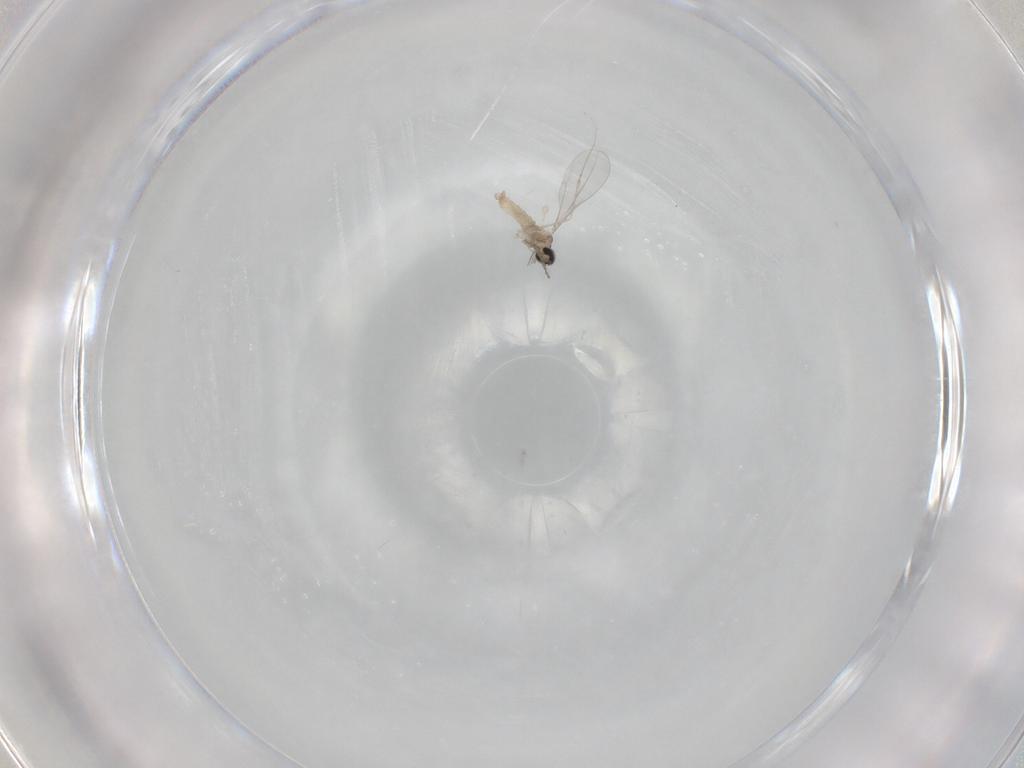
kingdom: Animalia
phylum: Arthropoda
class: Insecta
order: Diptera
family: Cecidomyiidae
